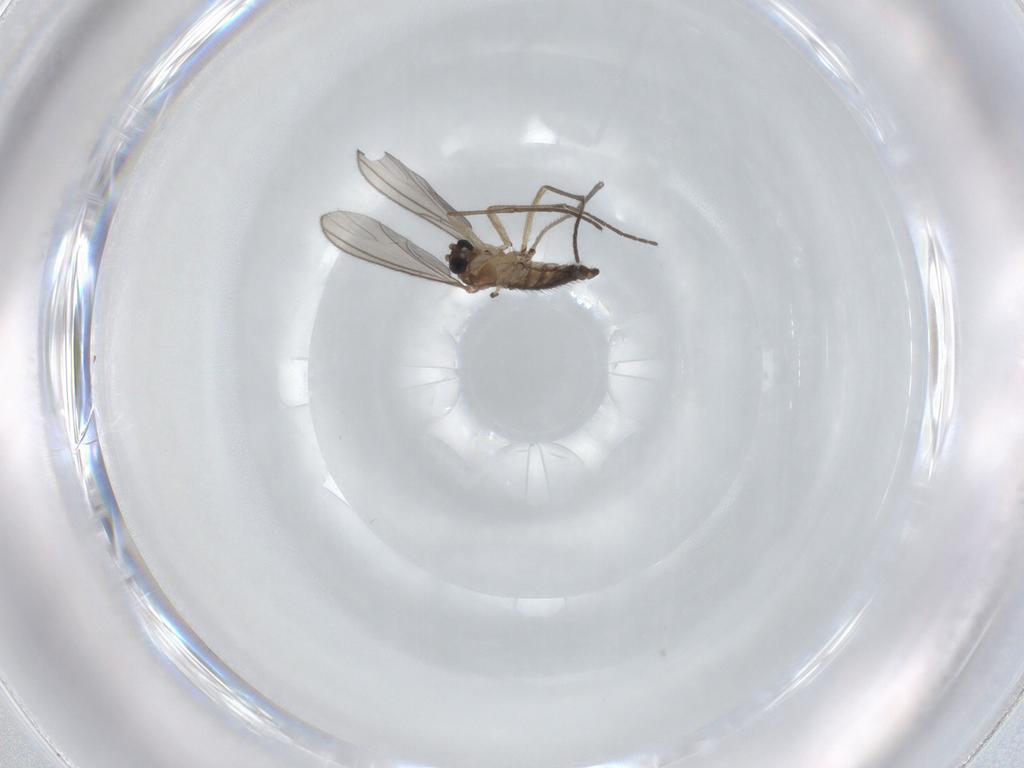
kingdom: Animalia
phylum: Arthropoda
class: Insecta
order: Diptera
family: Sciaridae
